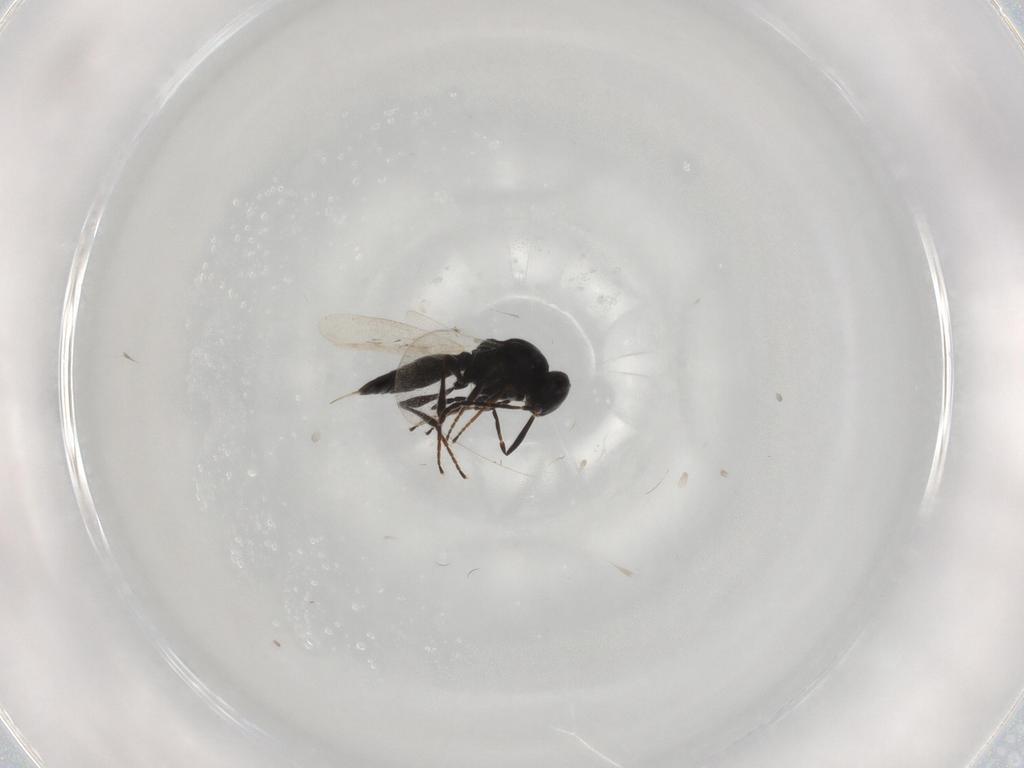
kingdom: Animalia
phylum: Arthropoda
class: Insecta
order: Hymenoptera
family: Platygastridae
